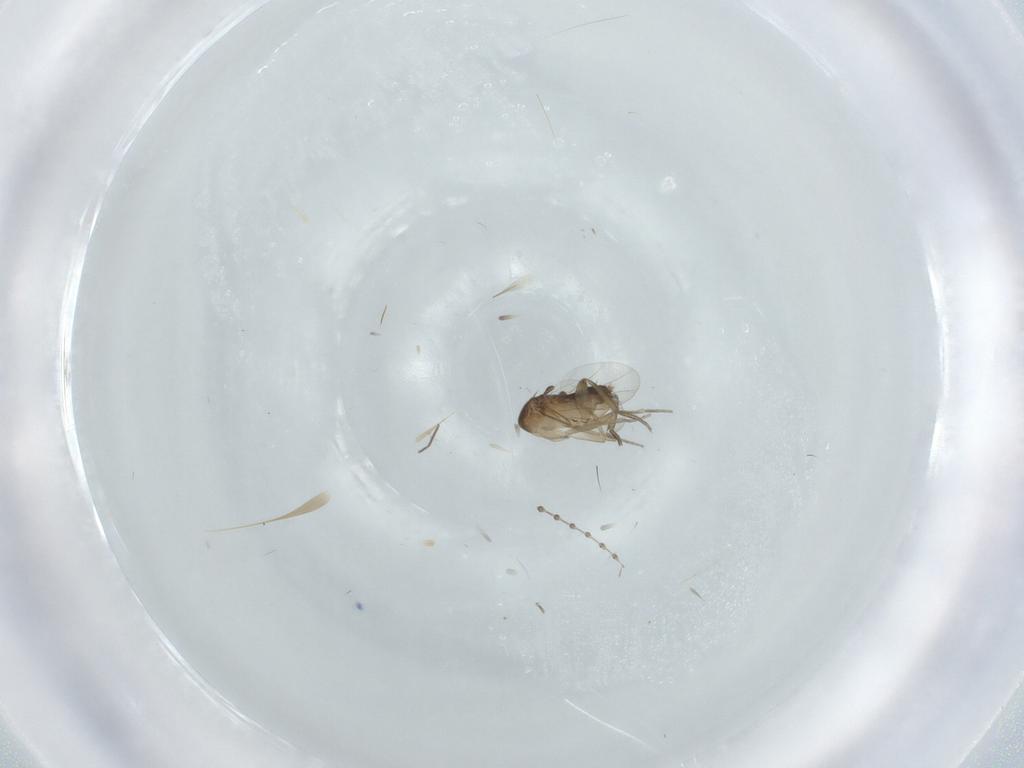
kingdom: Animalia
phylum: Arthropoda
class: Insecta
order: Diptera
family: Phoridae
